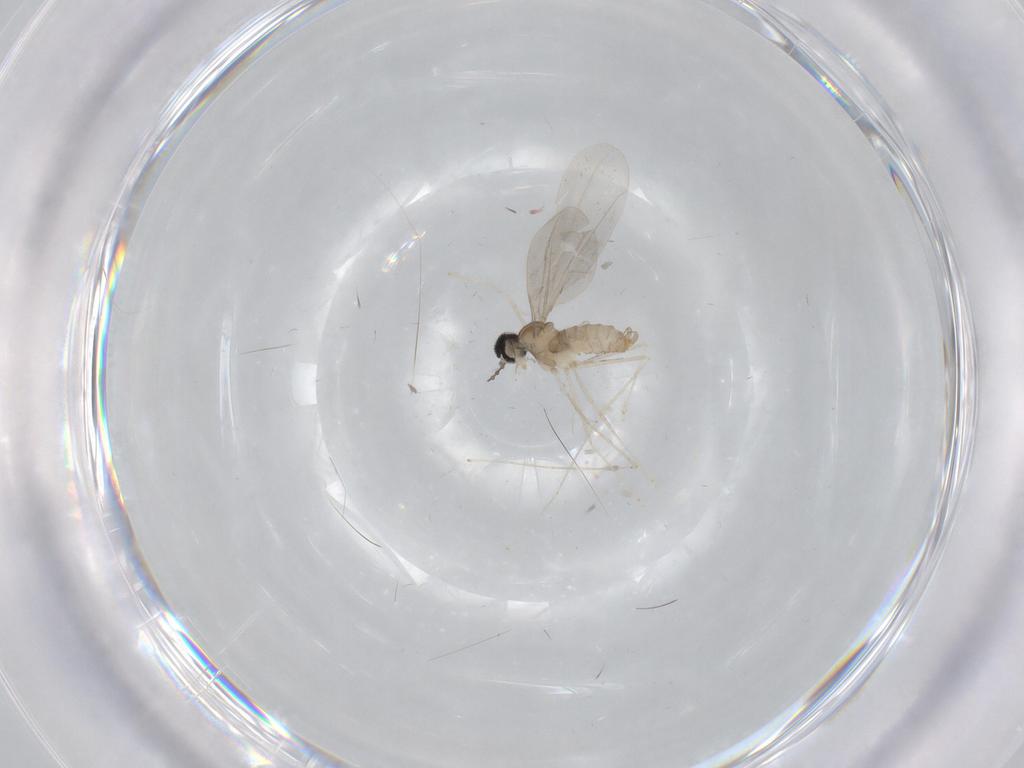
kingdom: Animalia
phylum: Arthropoda
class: Insecta
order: Diptera
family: Cecidomyiidae
